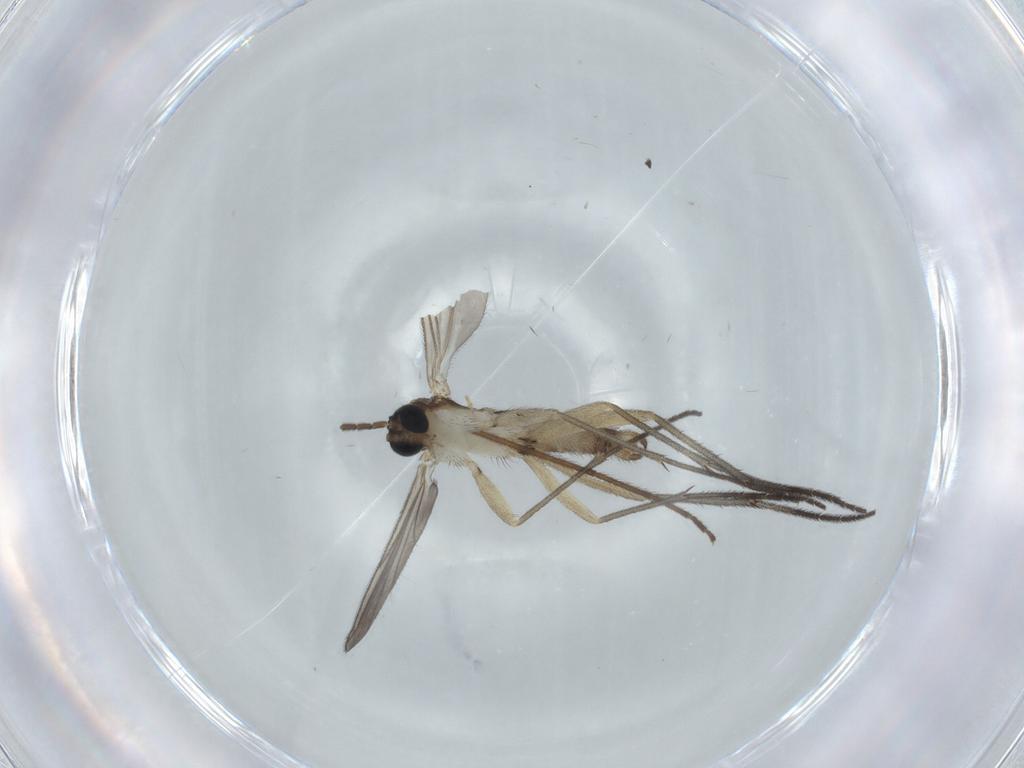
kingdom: Animalia
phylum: Arthropoda
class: Insecta
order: Diptera
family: Sciaridae
